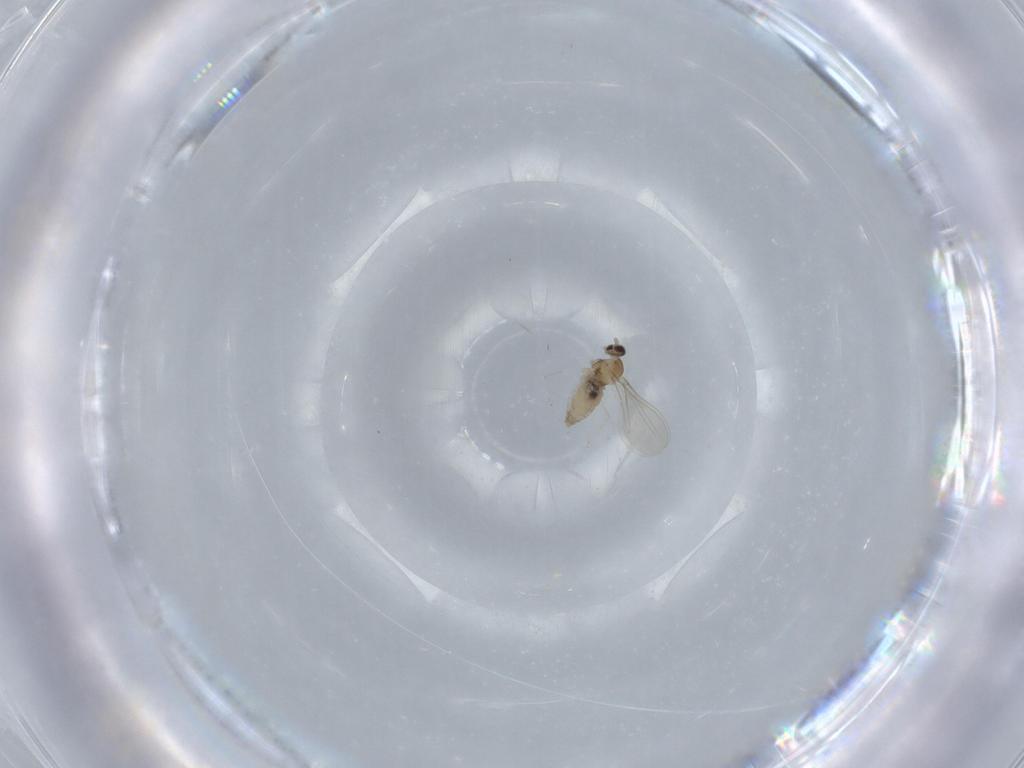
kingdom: Animalia
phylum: Arthropoda
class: Insecta
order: Diptera
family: Cecidomyiidae
